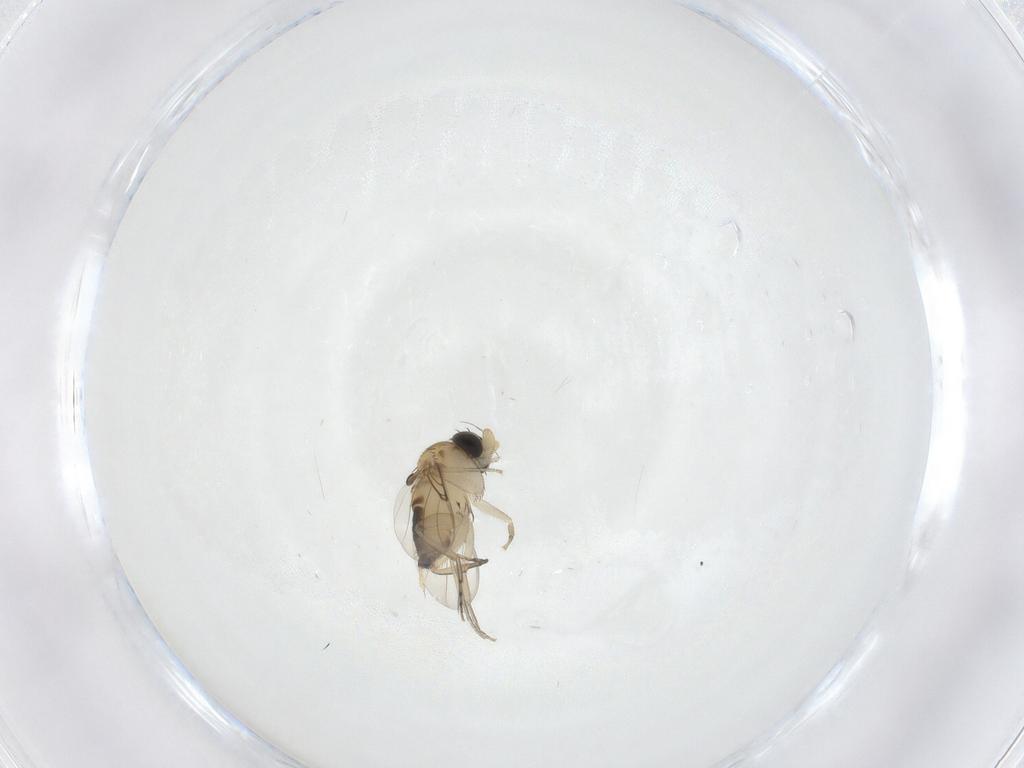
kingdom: Animalia
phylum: Arthropoda
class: Insecta
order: Diptera
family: Phoridae
